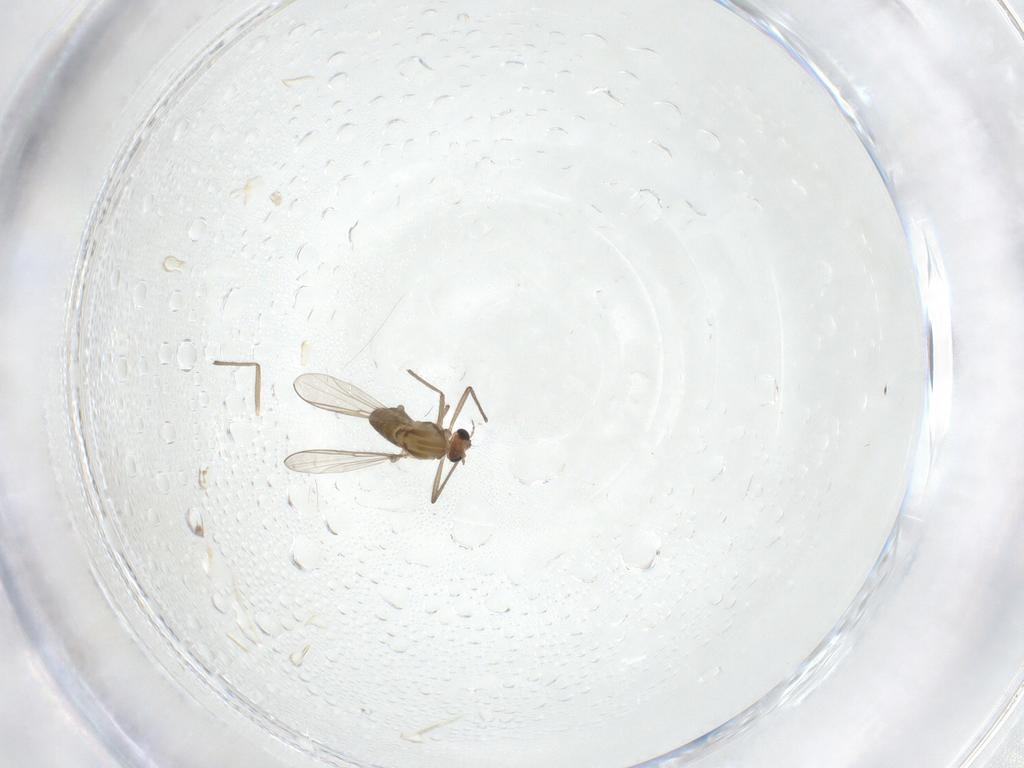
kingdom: Animalia
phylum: Arthropoda
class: Insecta
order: Diptera
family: Chironomidae
